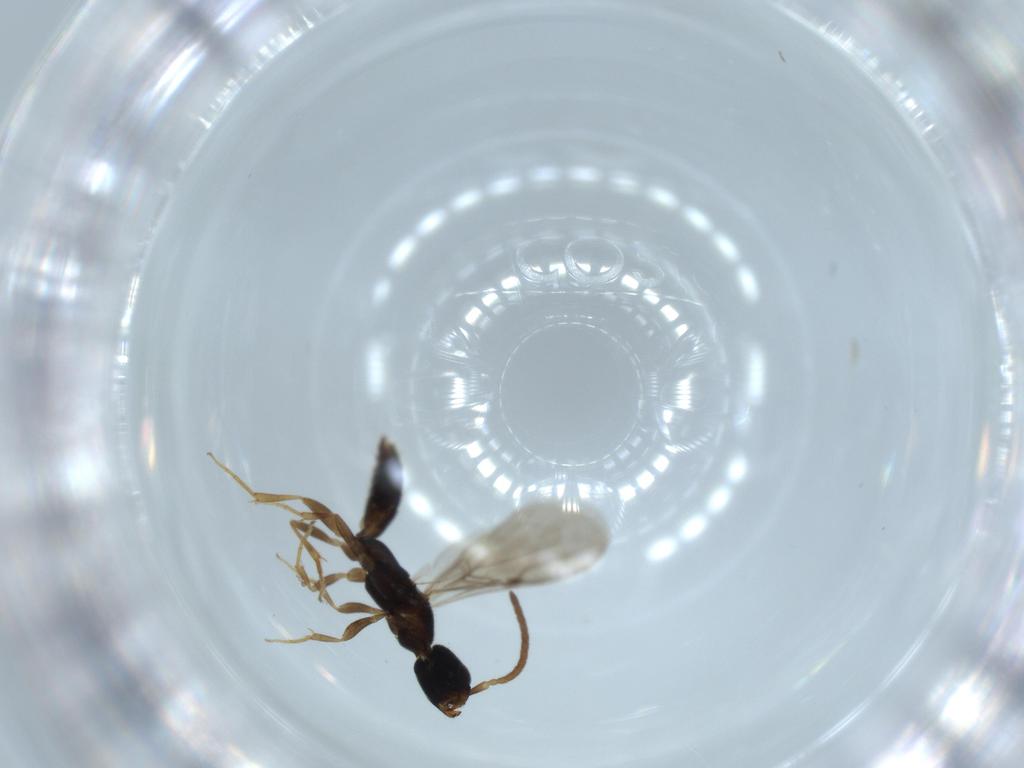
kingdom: Animalia
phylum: Arthropoda
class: Insecta
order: Hymenoptera
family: Bethylidae
